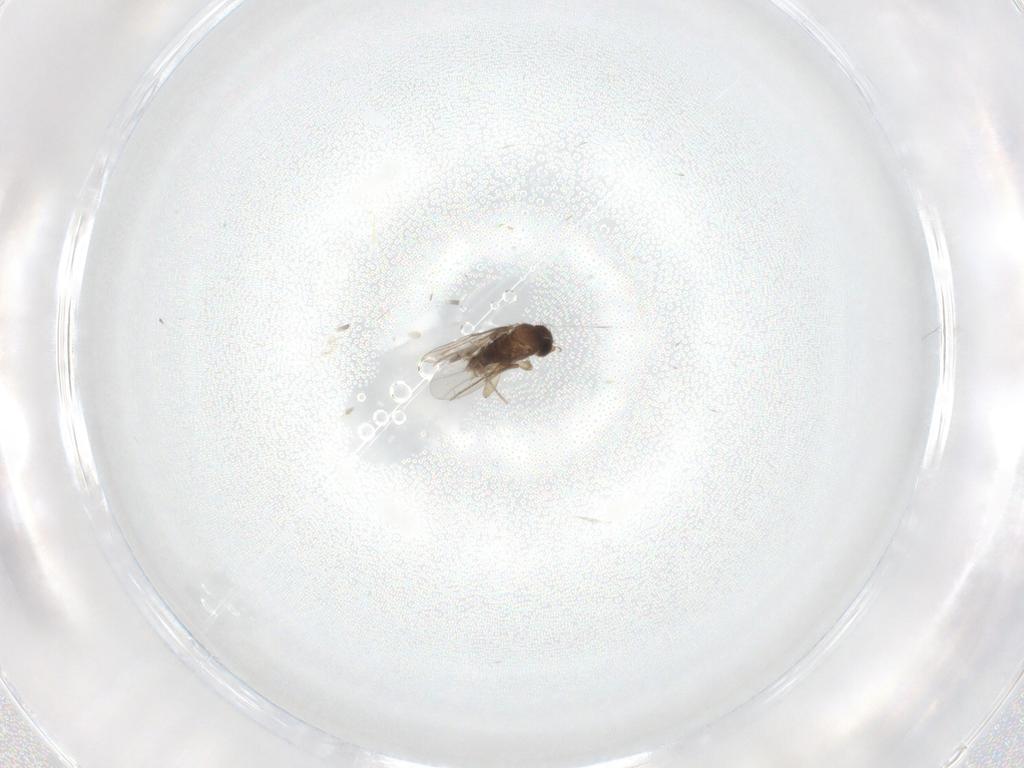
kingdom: Animalia
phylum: Arthropoda
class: Insecta
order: Diptera
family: Phoridae
